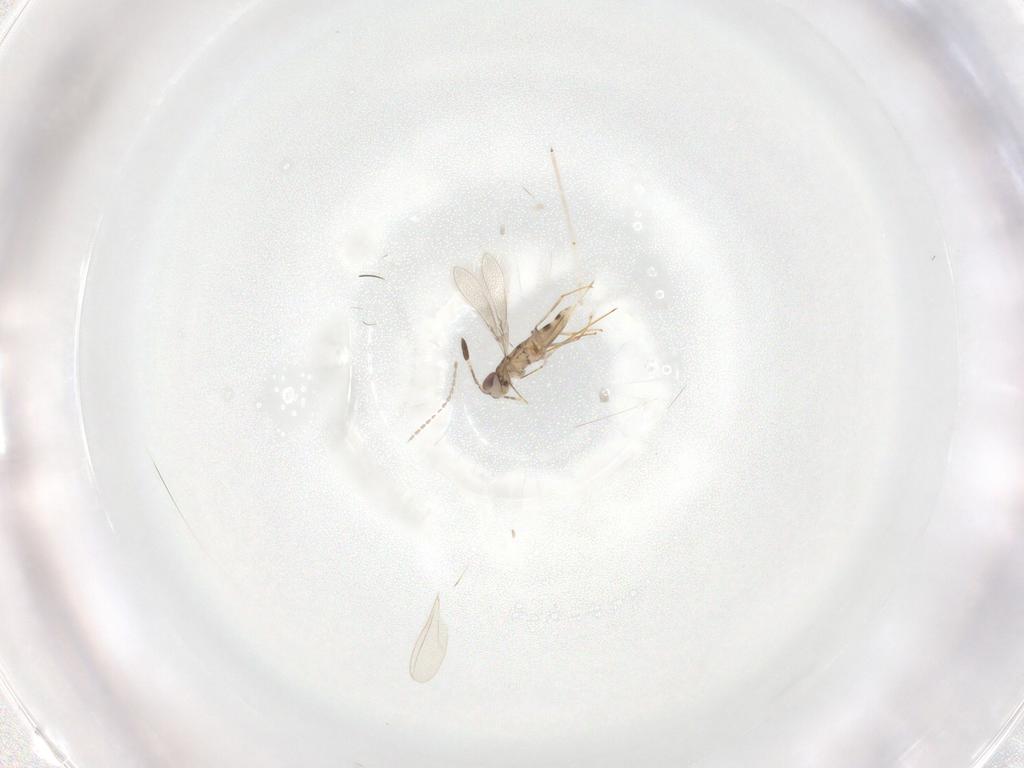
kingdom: Animalia
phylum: Arthropoda
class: Insecta
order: Hymenoptera
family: Mymaridae
